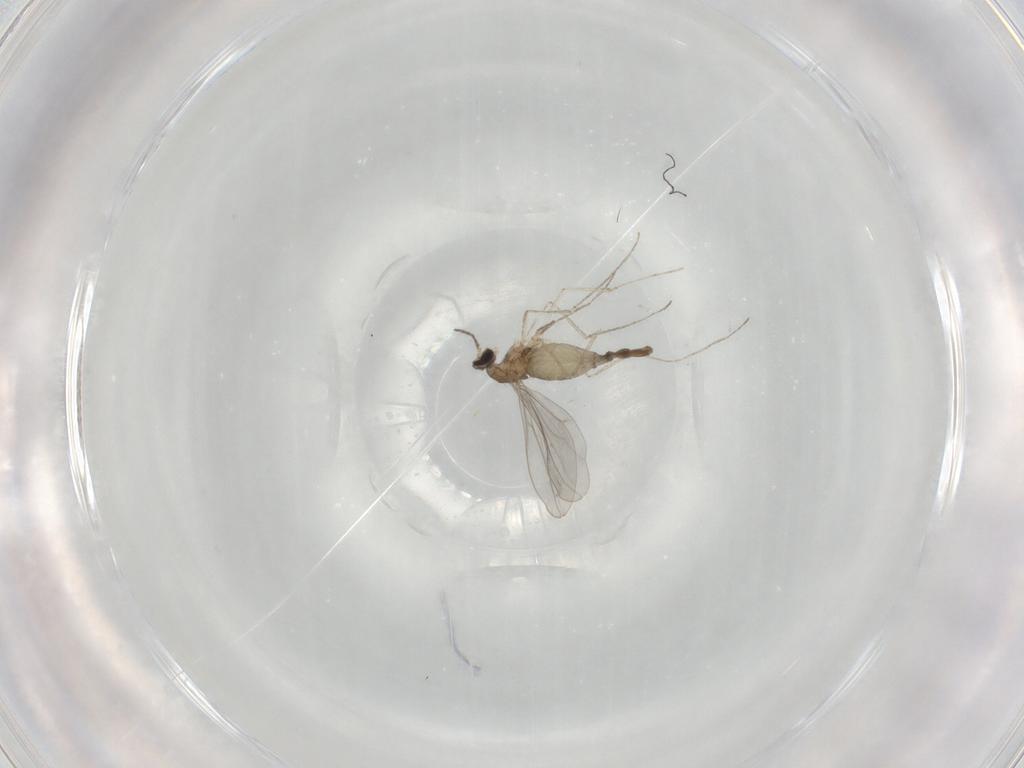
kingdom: Animalia
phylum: Arthropoda
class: Insecta
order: Diptera
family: Cecidomyiidae
